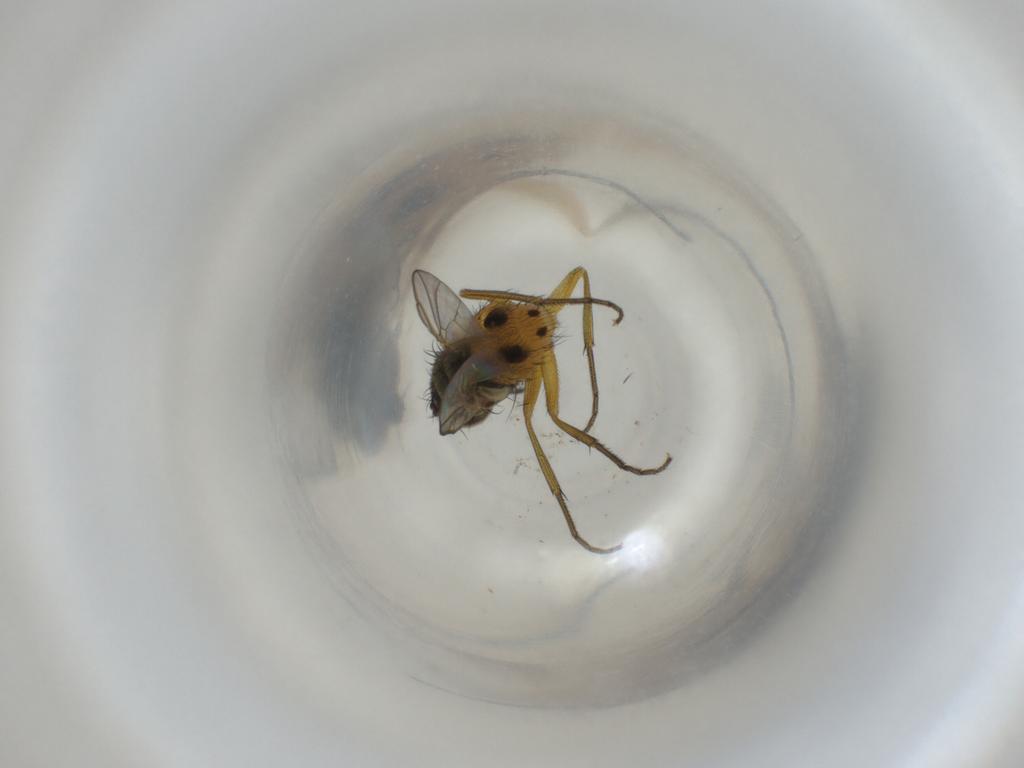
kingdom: Animalia
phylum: Arthropoda
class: Insecta
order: Diptera
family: Muscidae
